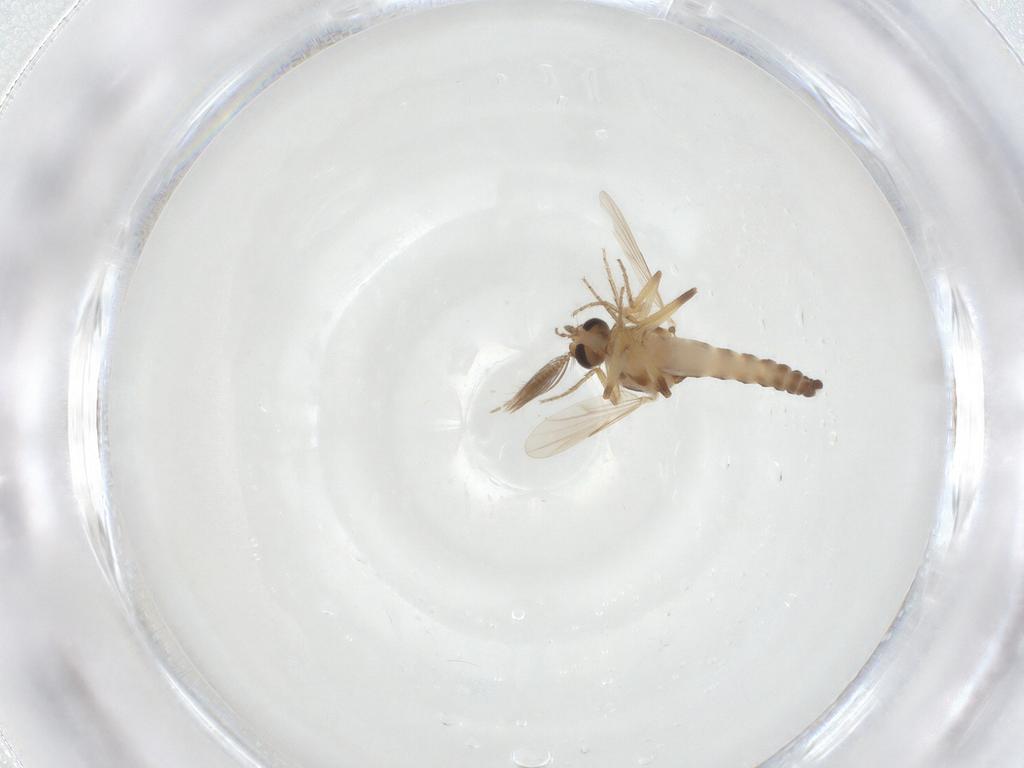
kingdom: Animalia
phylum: Arthropoda
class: Insecta
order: Diptera
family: Ceratopogonidae
